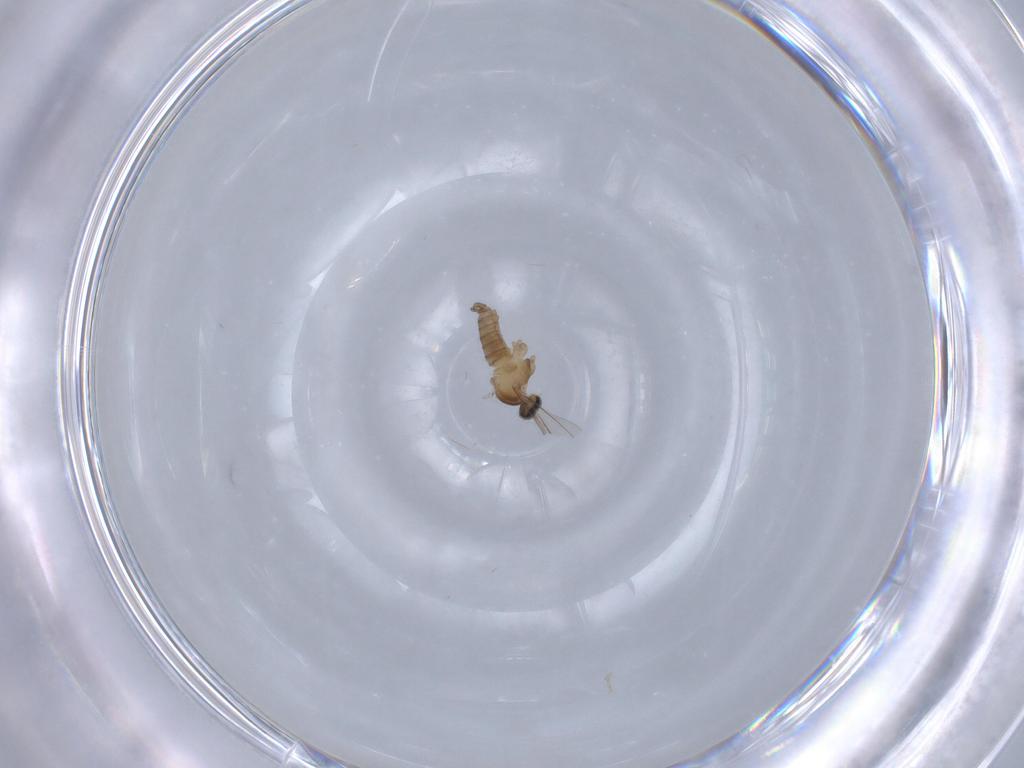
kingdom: Animalia
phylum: Arthropoda
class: Insecta
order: Diptera
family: Cecidomyiidae
